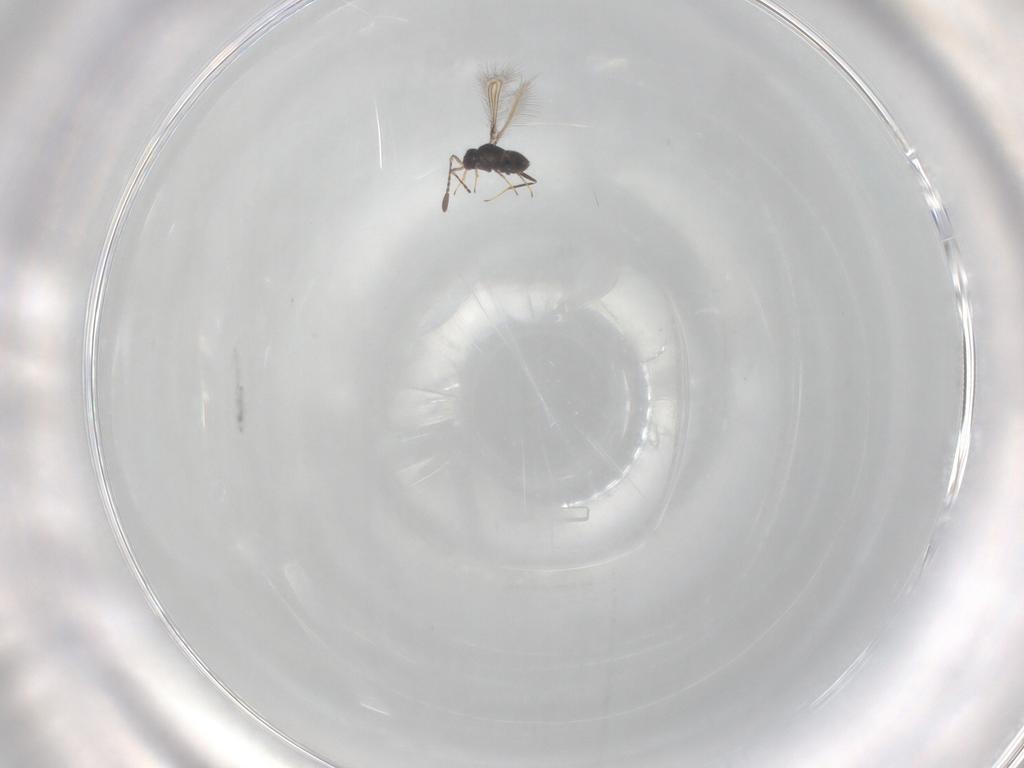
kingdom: Animalia
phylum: Arthropoda
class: Insecta
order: Hymenoptera
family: Mymaridae
